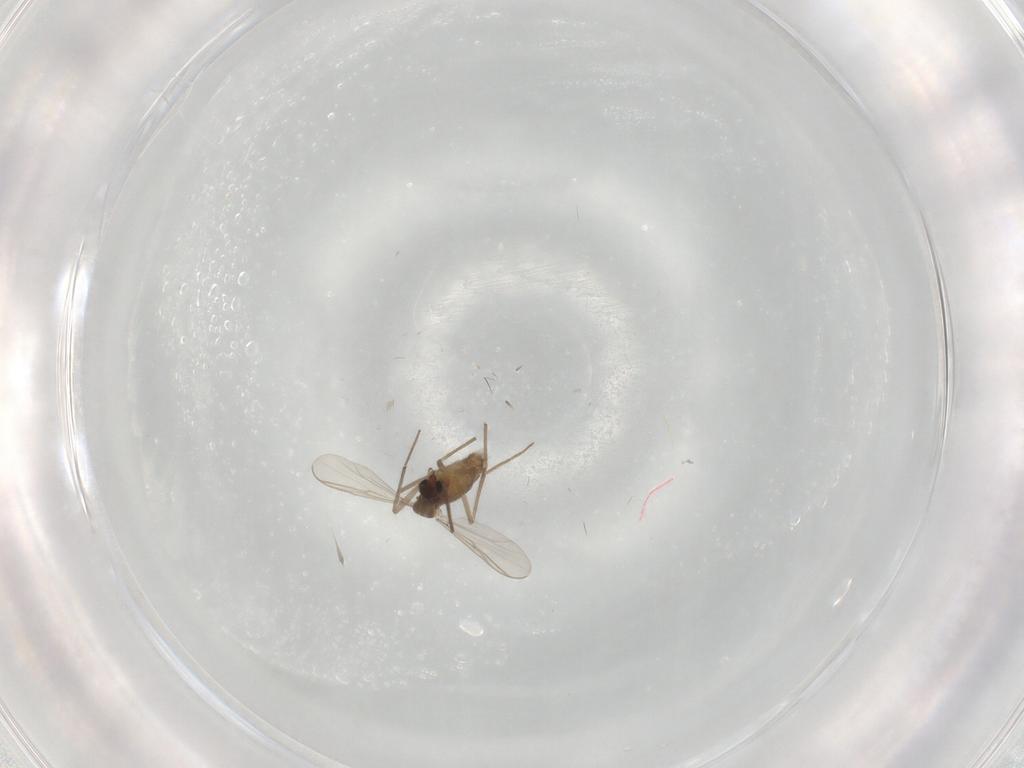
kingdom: Animalia
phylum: Arthropoda
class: Insecta
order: Diptera
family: Chironomidae
